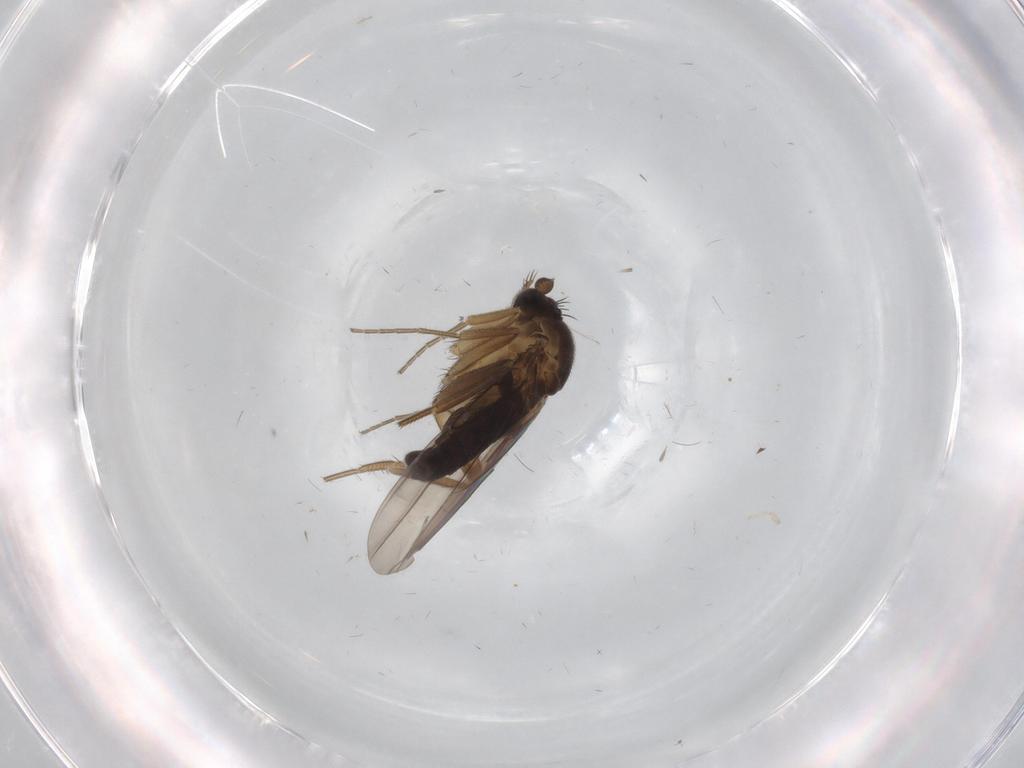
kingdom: Animalia
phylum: Arthropoda
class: Insecta
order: Diptera
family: Phoridae
